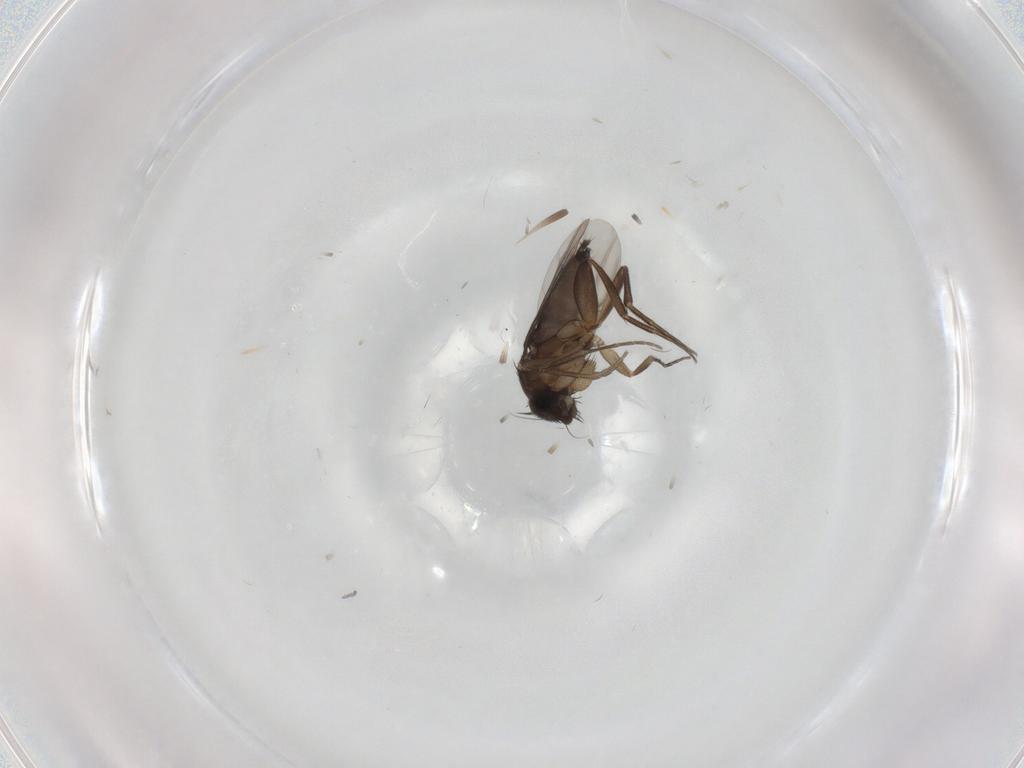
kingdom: Animalia
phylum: Arthropoda
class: Insecta
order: Diptera
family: Phoridae
